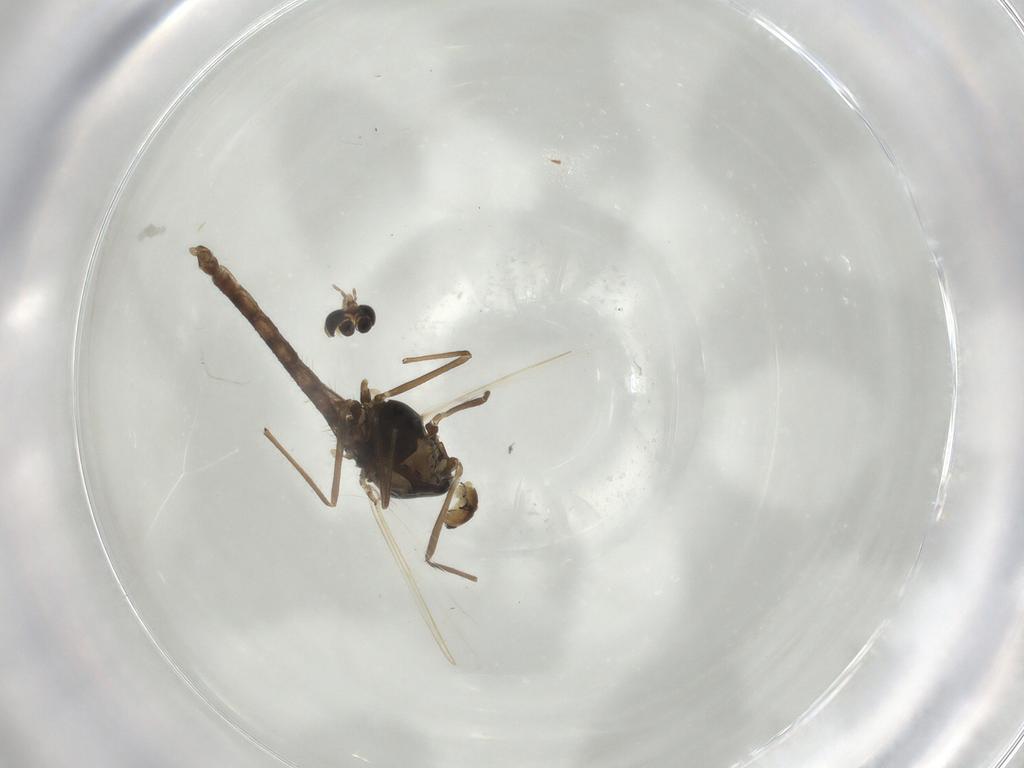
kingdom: Animalia
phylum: Arthropoda
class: Insecta
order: Diptera
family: Chironomidae
